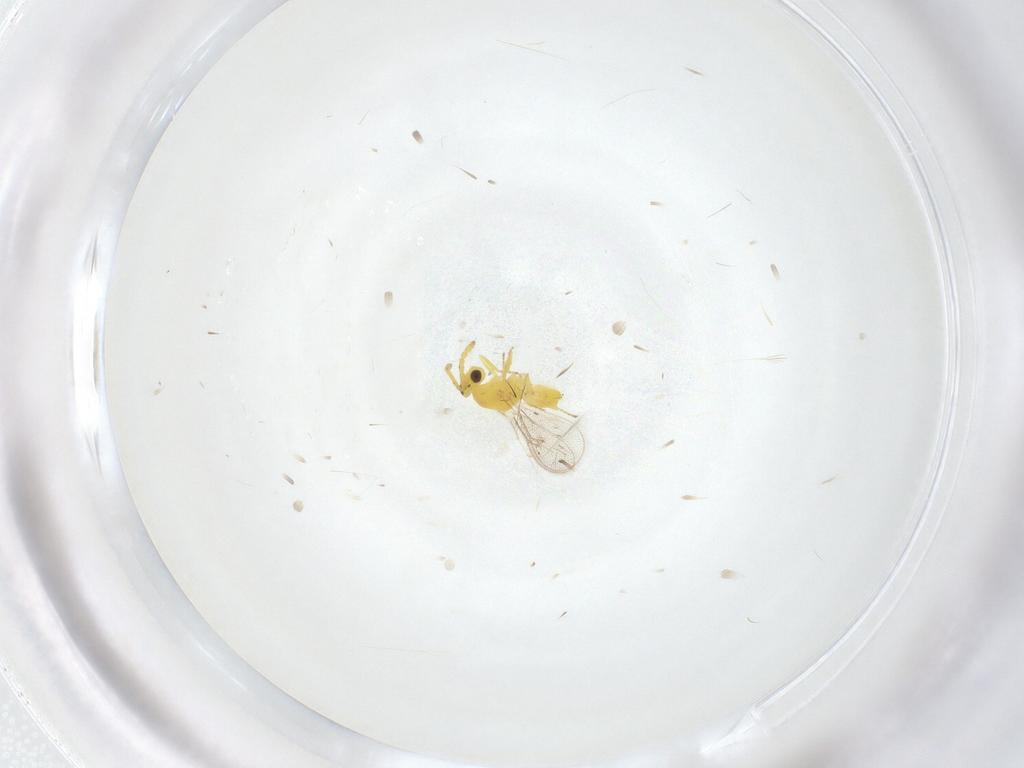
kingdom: Animalia
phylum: Arthropoda
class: Insecta
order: Hymenoptera
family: Eulophidae
